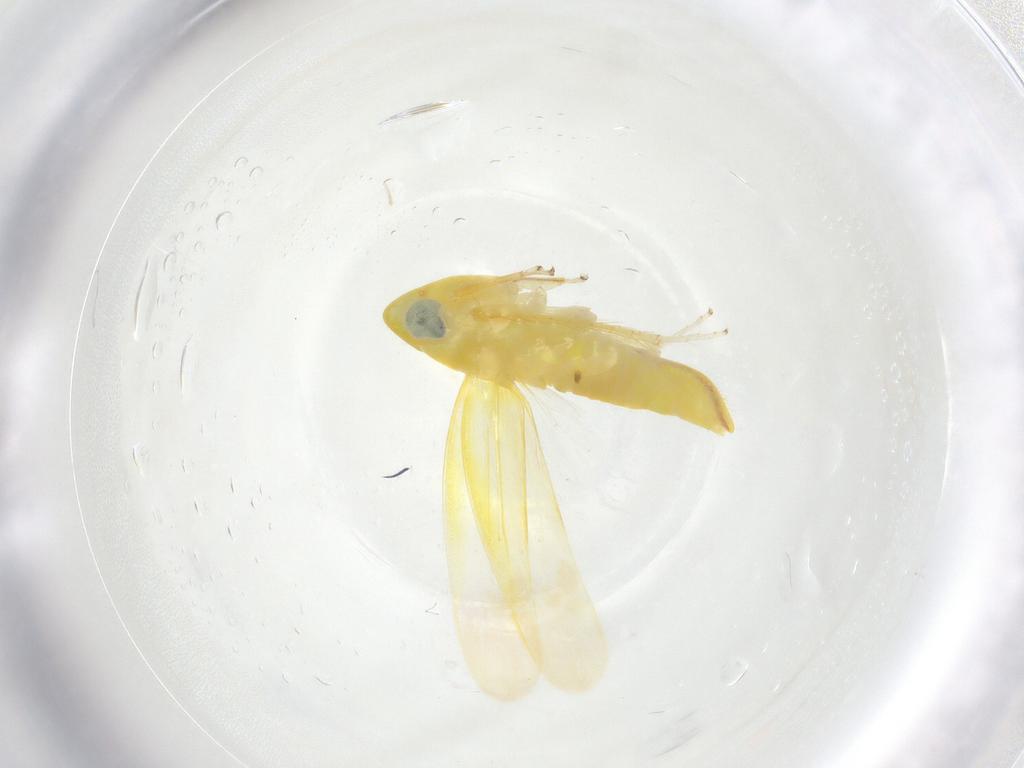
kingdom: Animalia
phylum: Arthropoda
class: Insecta
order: Hemiptera
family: Cicadellidae
